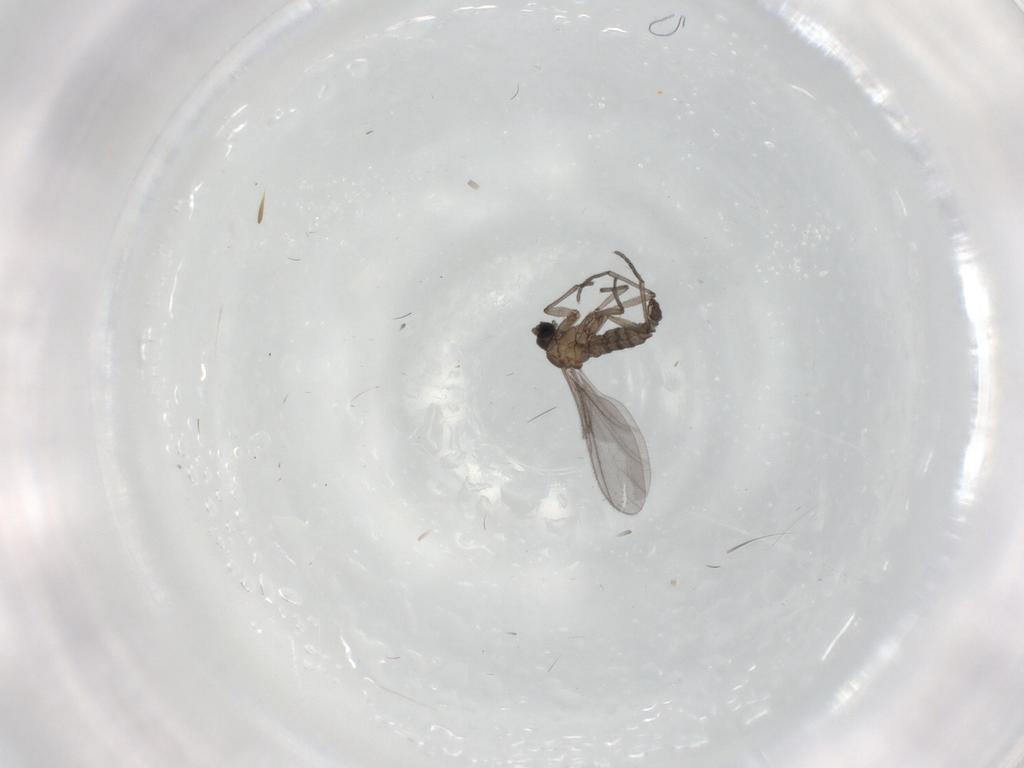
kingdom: Animalia
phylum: Arthropoda
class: Insecta
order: Diptera
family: Sciaridae
